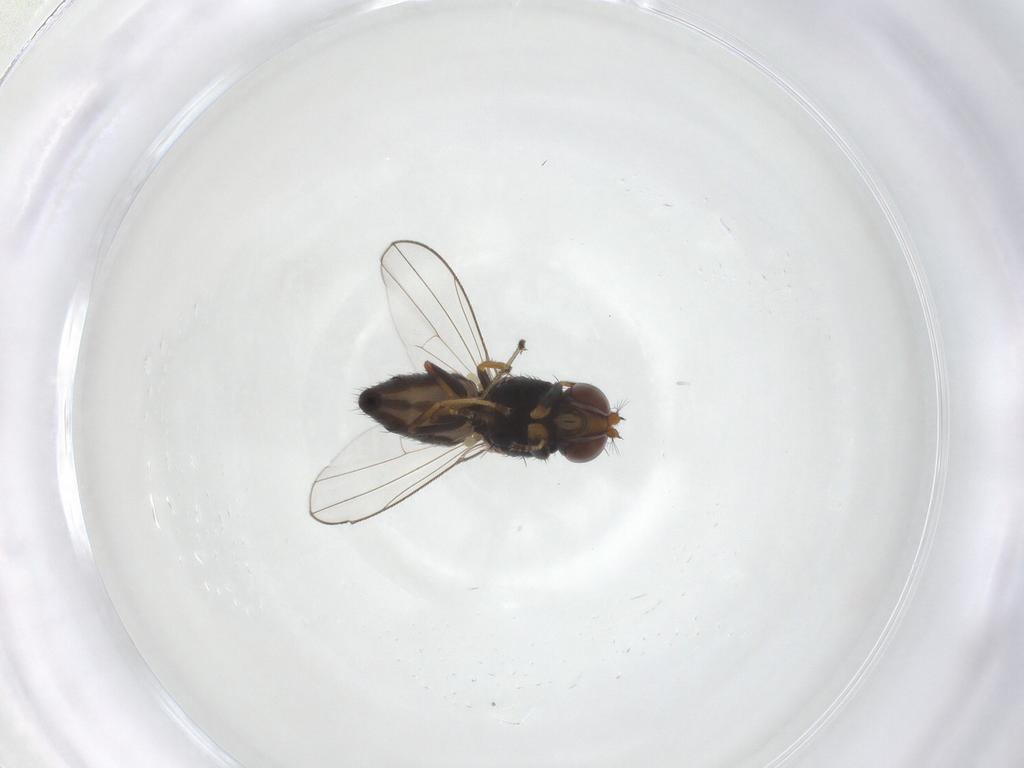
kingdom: Animalia
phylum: Arthropoda
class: Insecta
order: Diptera
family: Ephydridae
